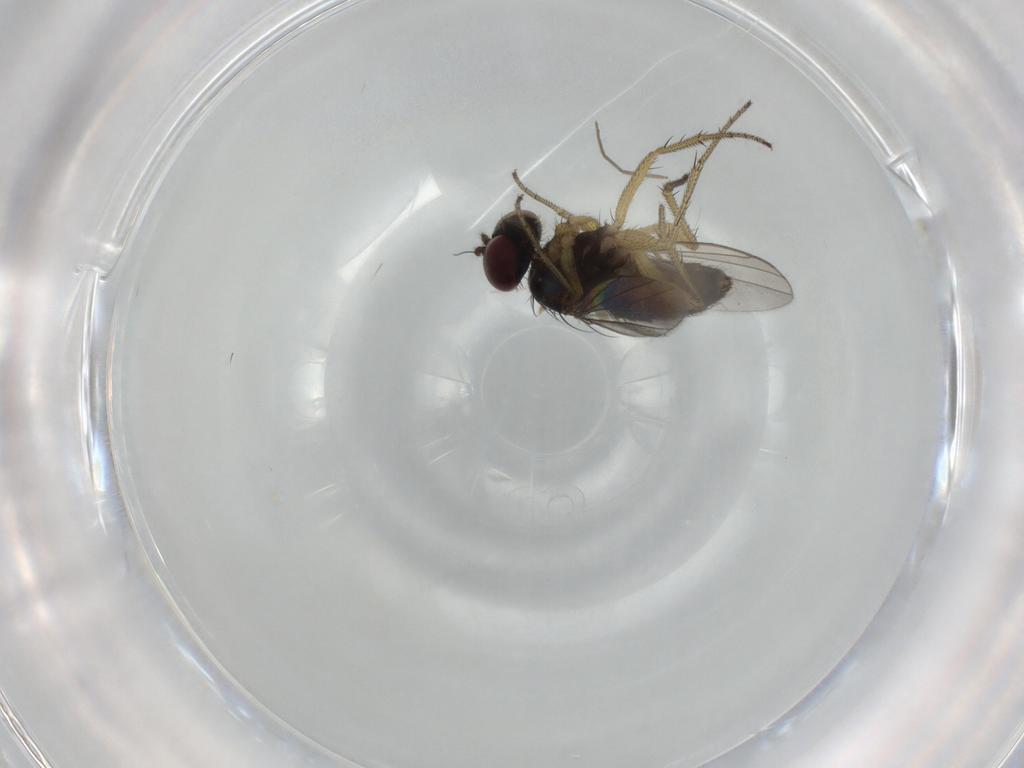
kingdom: Animalia
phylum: Arthropoda
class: Insecta
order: Diptera
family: Micropezidae
